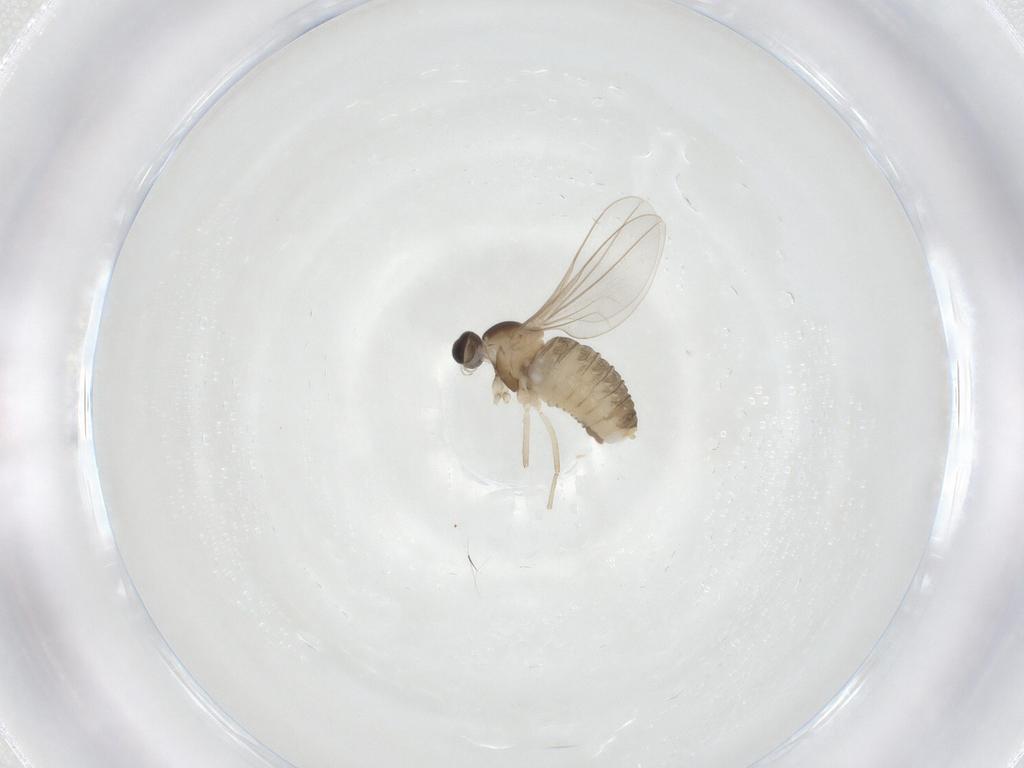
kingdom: Animalia
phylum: Arthropoda
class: Insecta
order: Diptera
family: Cecidomyiidae
